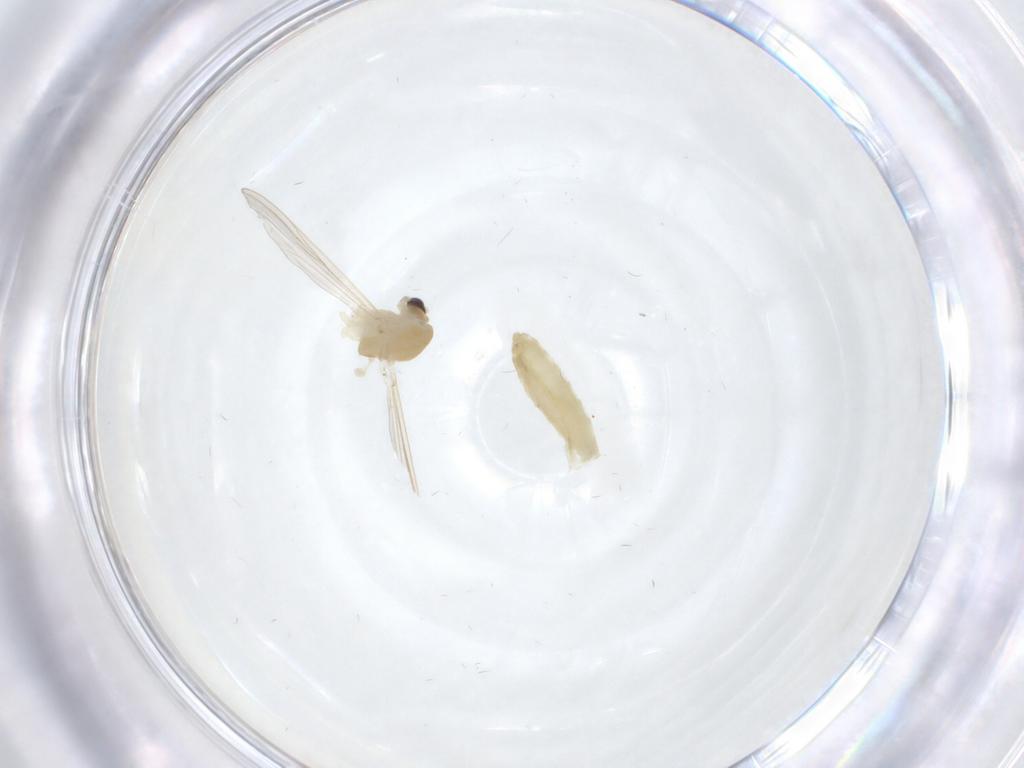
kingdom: Animalia
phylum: Arthropoda
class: Insecta
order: Diptera
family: Chironomidae
